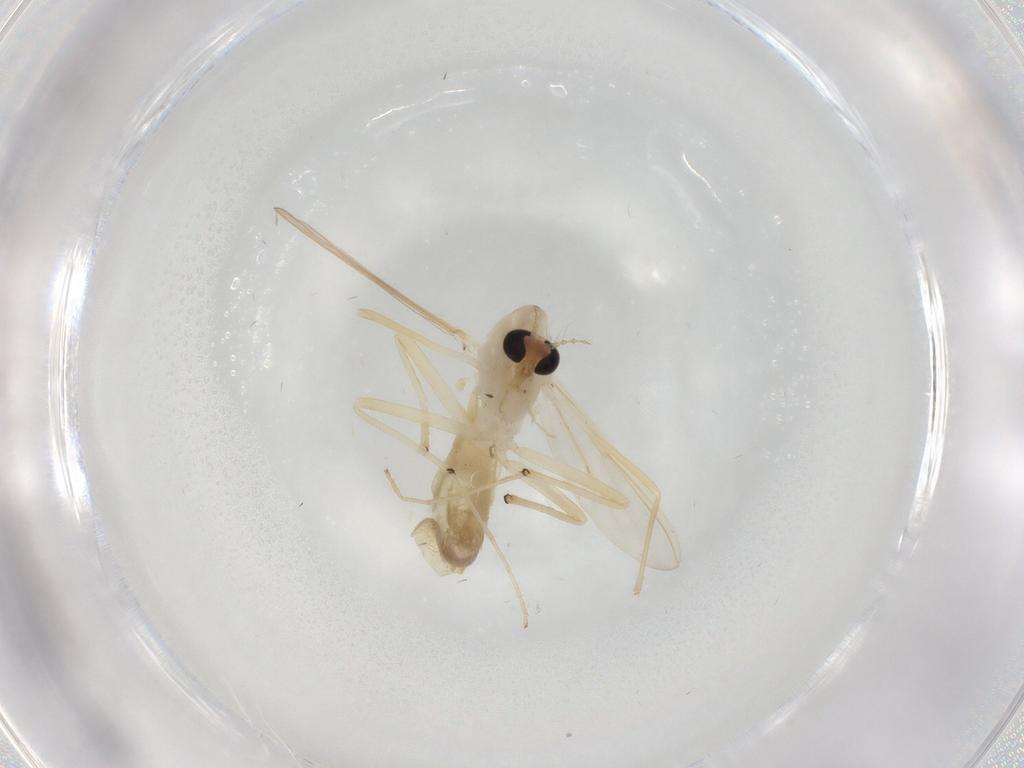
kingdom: Animalia
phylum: Arthropoda
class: Insecta
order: Diptera
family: Chironomidae
